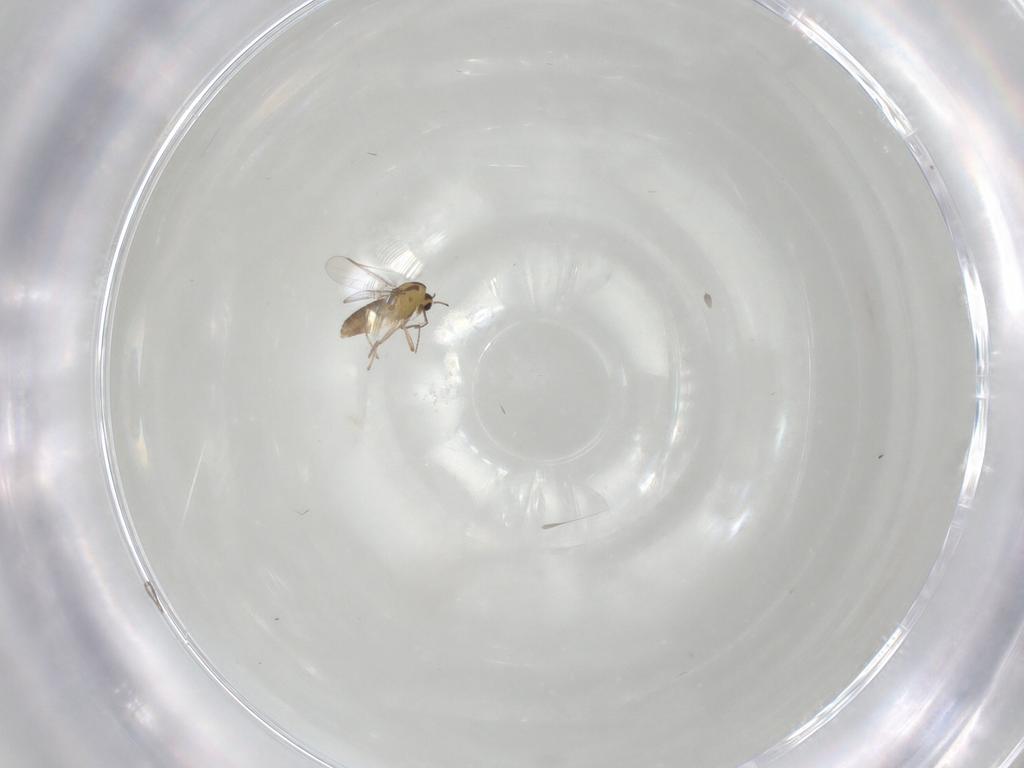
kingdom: Animalia
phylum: Arthropoda
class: Insecta
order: Diptera
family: Chironomidae
